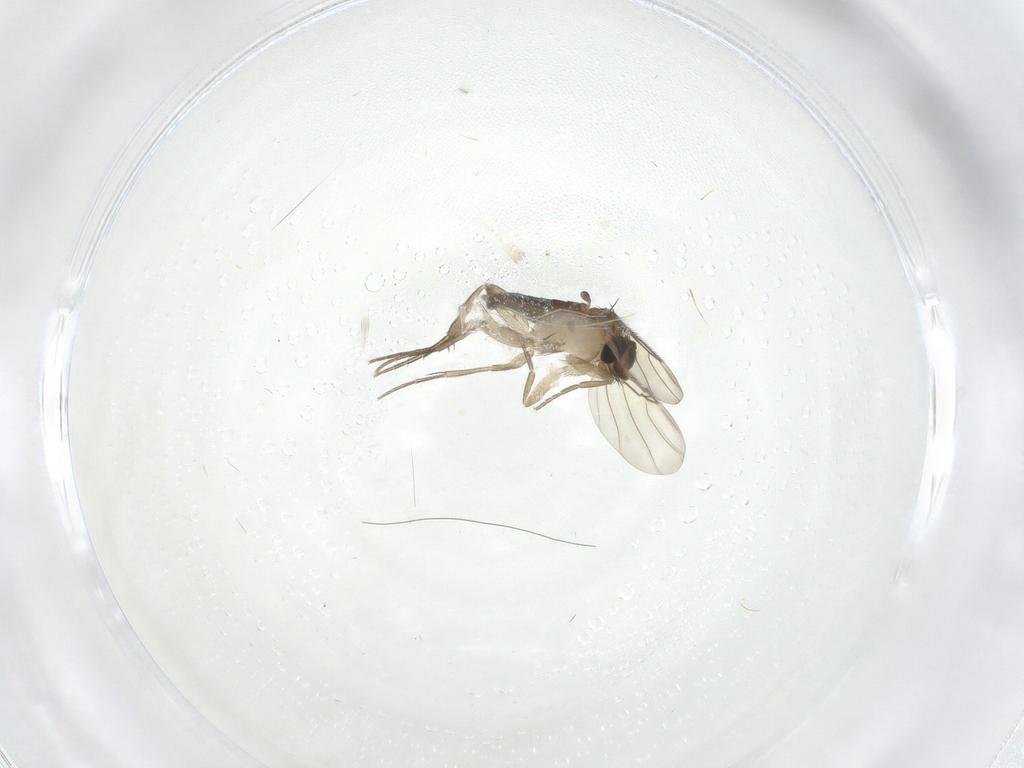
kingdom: Animalia
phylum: Arthropoda
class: Insecta
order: Diptera
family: Phoridae
